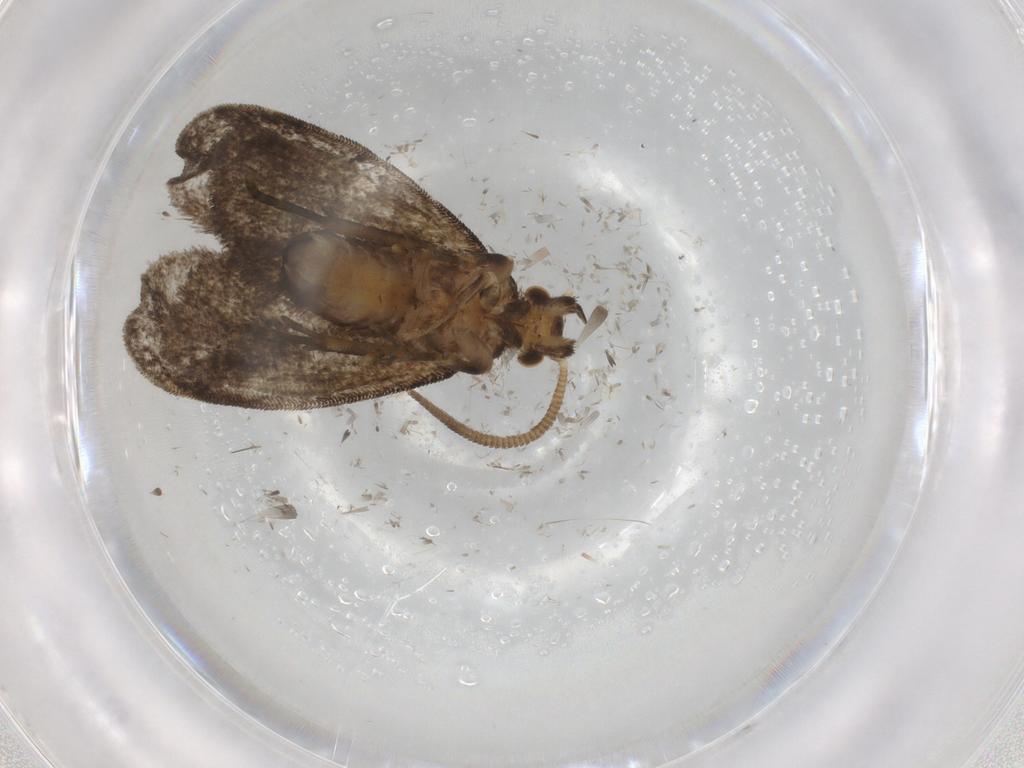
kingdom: Animalia
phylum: Arthropoda
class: Insecta
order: Lepidoptera
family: Dryadaulidae
